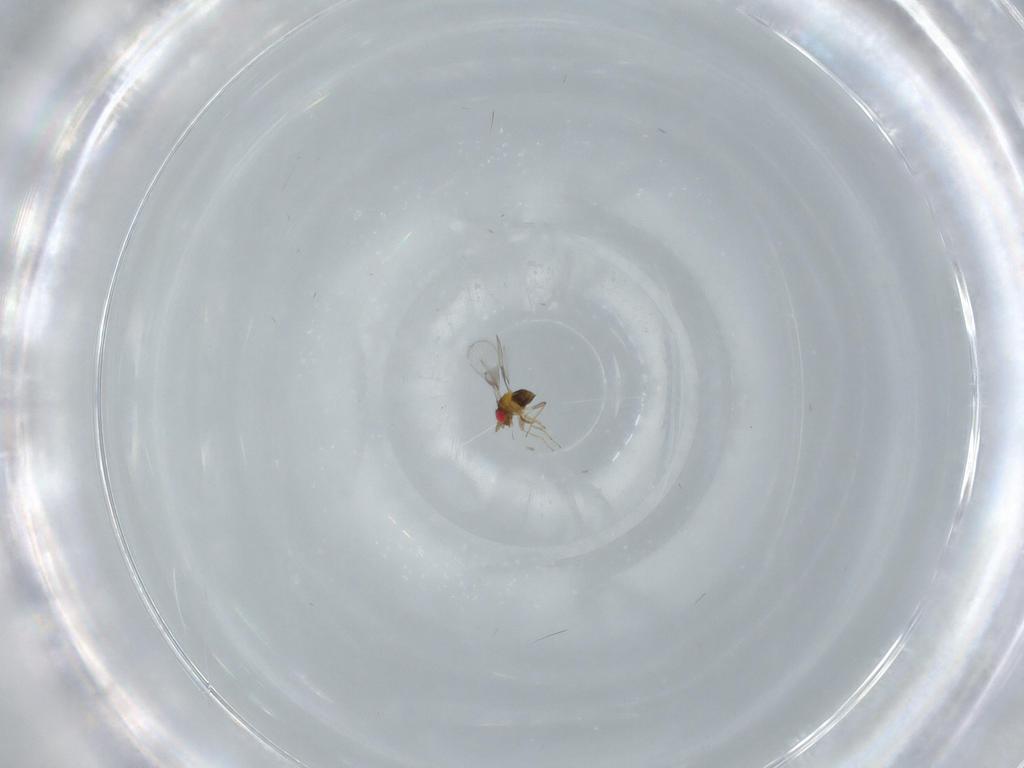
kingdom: Animalia
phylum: Arthropoda
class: Insecta
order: Hymenoptera
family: Trichogrammatidae
